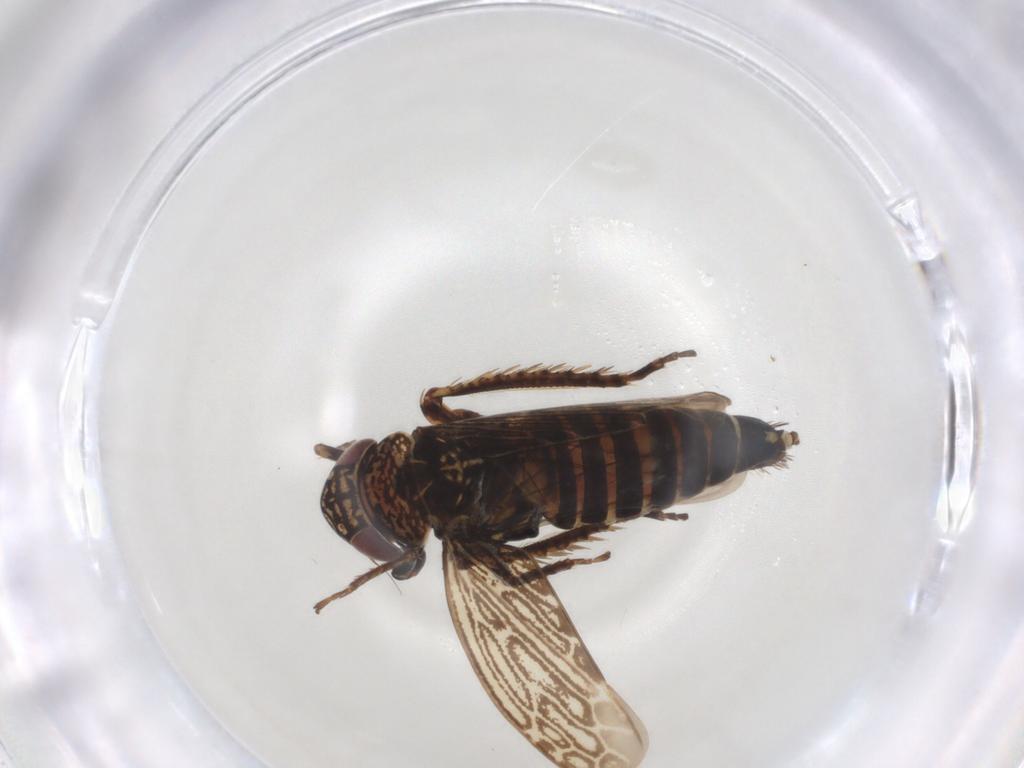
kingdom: Animalia
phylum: Arthropoda
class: Insecta
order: Hemiptera
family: Cicadellidae
